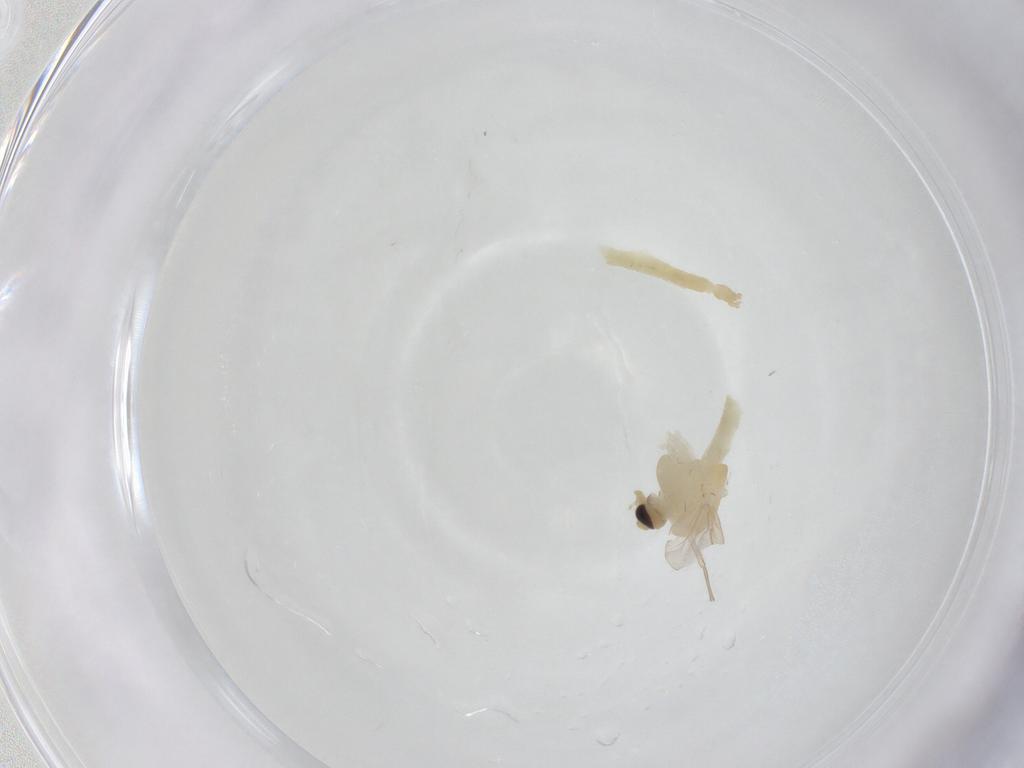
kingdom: Animalia
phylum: Arthropoda
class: Insecta
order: Diptera
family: Chironomidae
